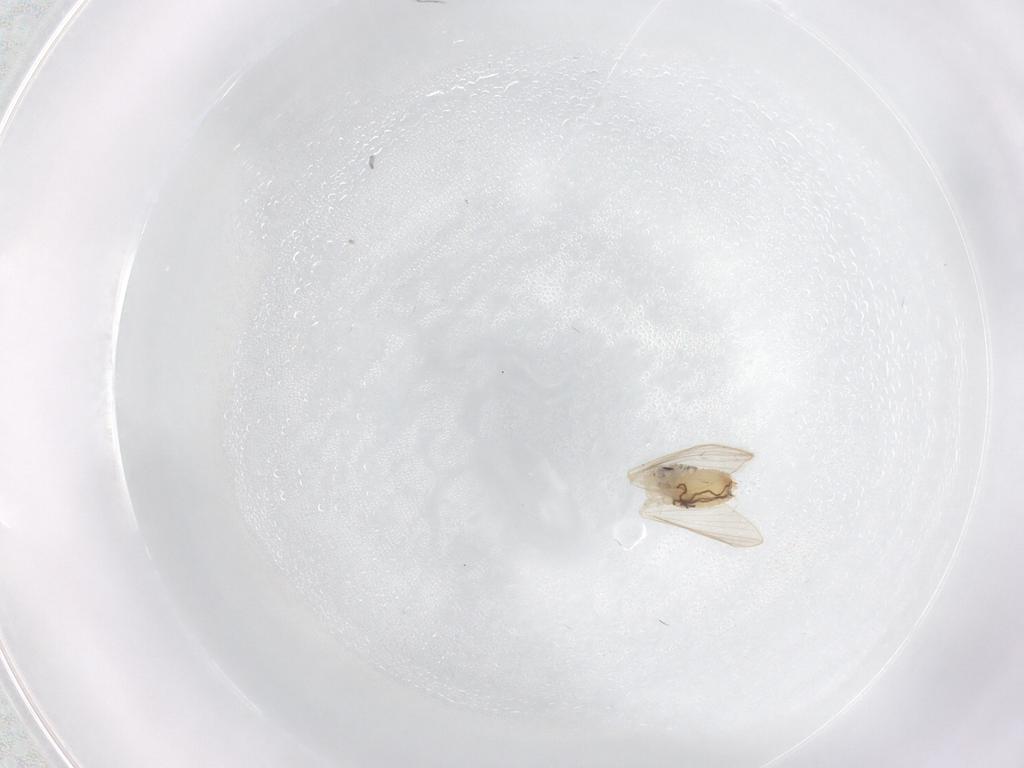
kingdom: Animalia
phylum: Arthropoda
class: Insecta
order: Diptera
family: Psychodidae
